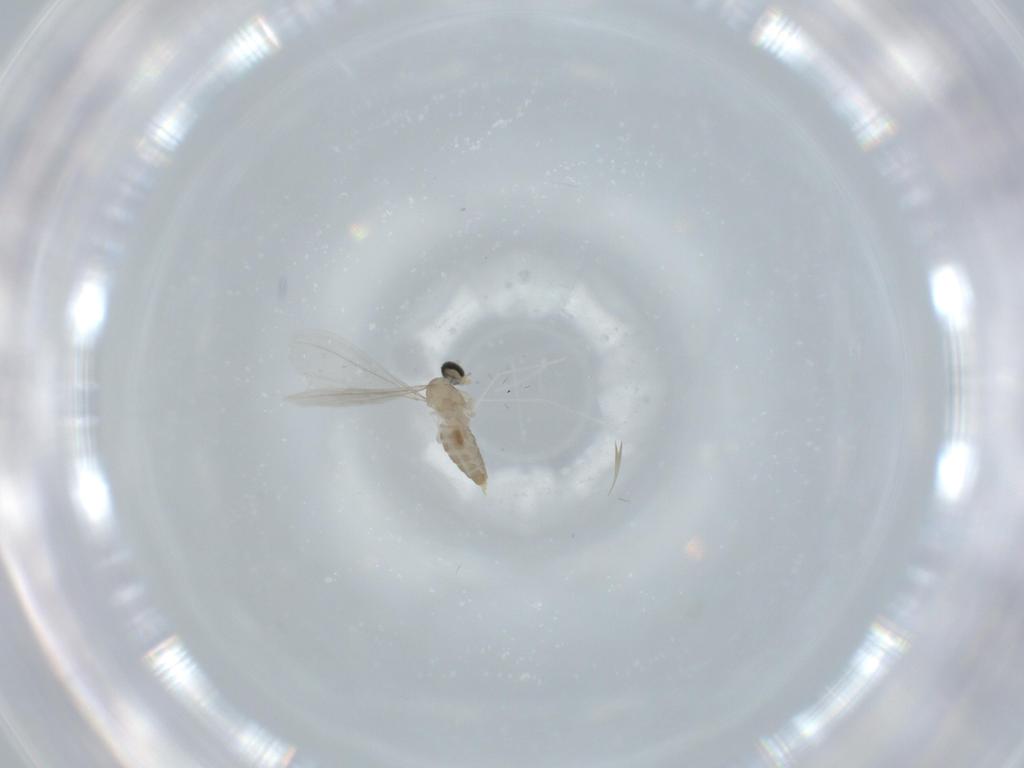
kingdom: Animalia
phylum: Arthropoda
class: Insecta
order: Diptera
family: Cecidomyiidae
